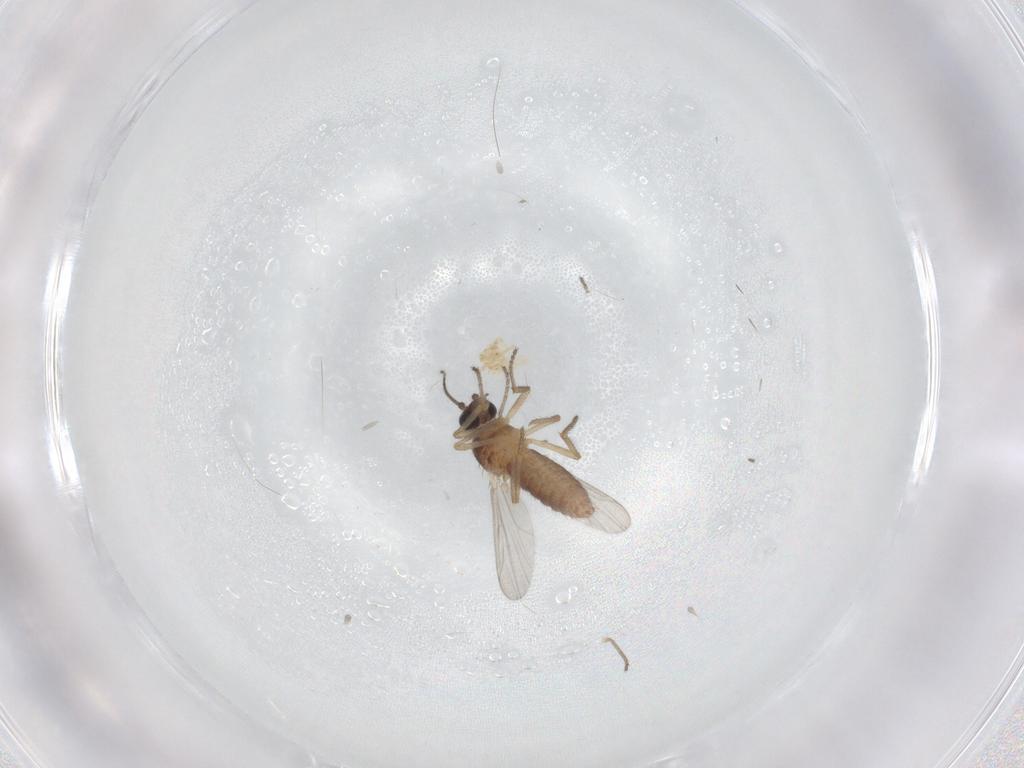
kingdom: Animalia
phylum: Arthropoda
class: Insecta
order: Diptera
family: Ceratopogonidae
